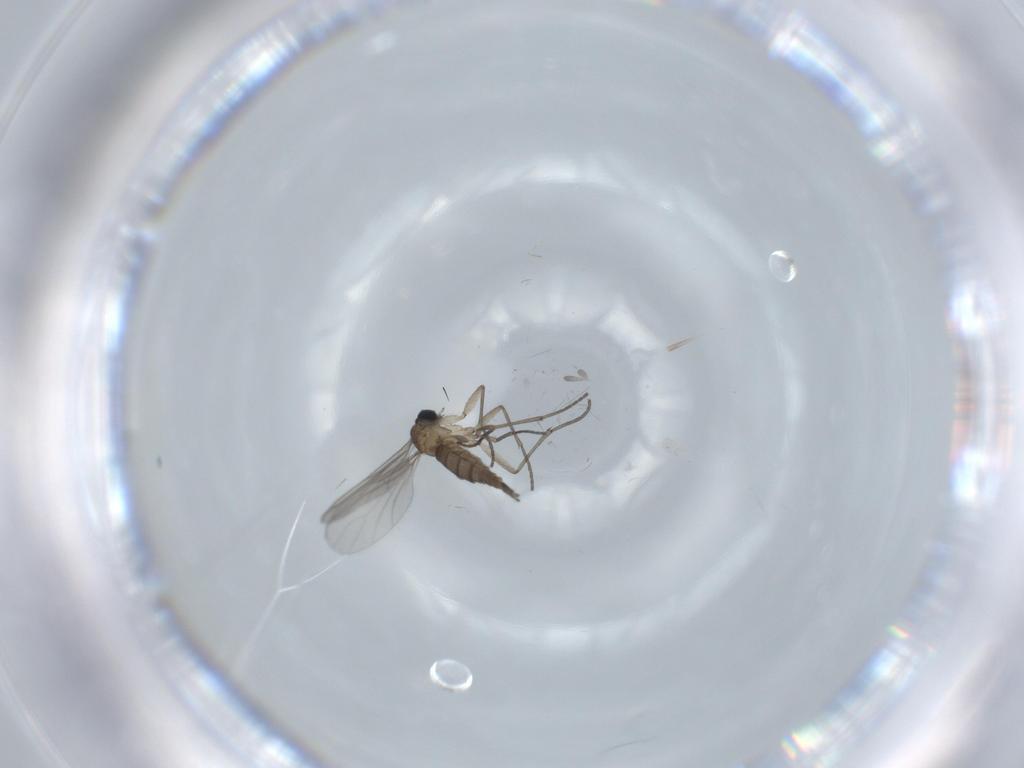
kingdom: Animalia
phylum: Arthropoda
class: Insecta
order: Diptera
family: Sciaridae
